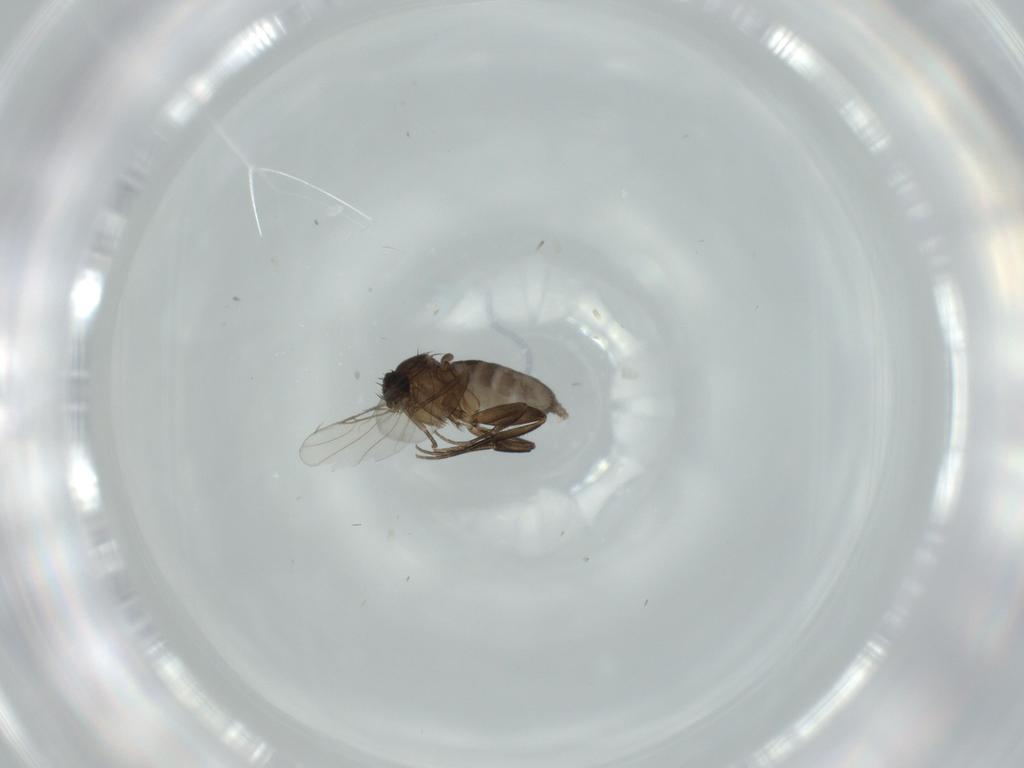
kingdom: Animalia
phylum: Arthropoda
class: Insecta
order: Diptera
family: Phoridae
